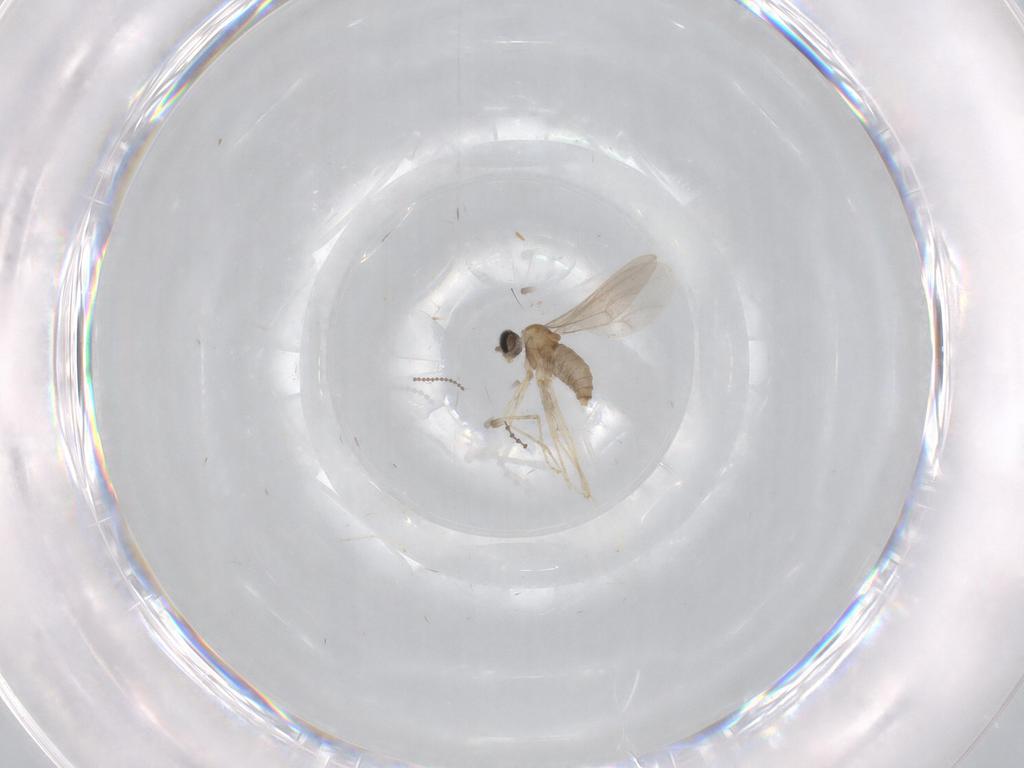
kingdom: Animalia
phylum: Arthropoda
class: Insecta
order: Diptera
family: Cecidomyiidae
